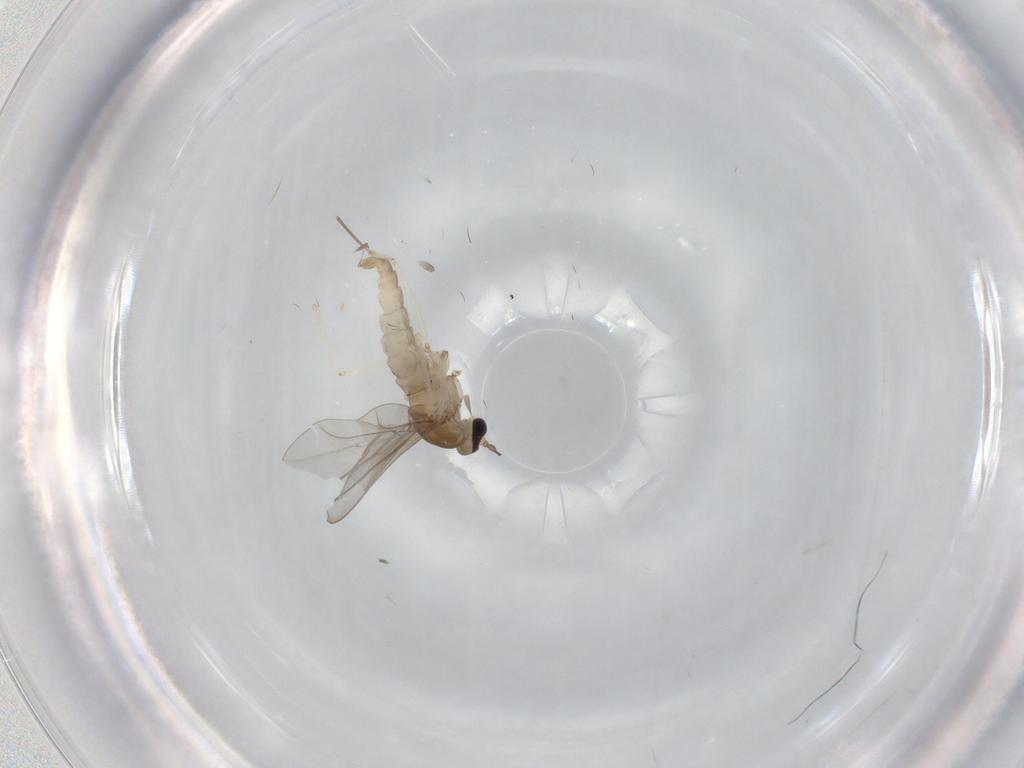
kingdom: Animalia
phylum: Arthropoda
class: Insecta
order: Diptera
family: Cecidomyiidae
